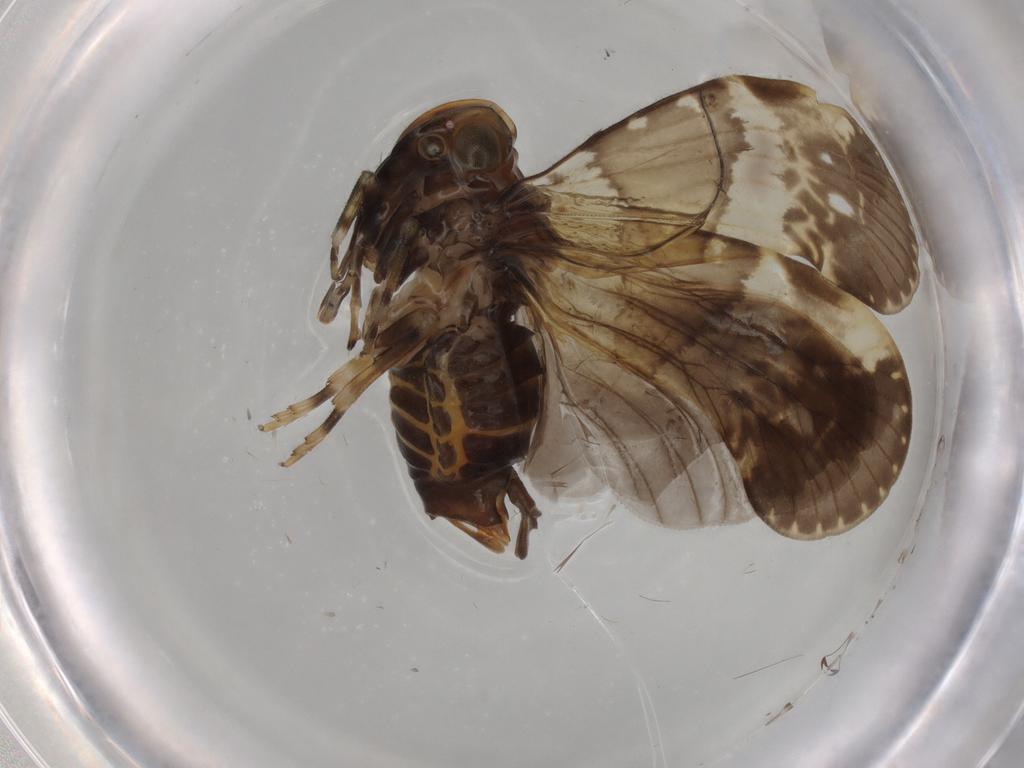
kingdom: Animalia
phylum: Arthropoda
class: Insecta
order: Hemiptera
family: Cixiidae
